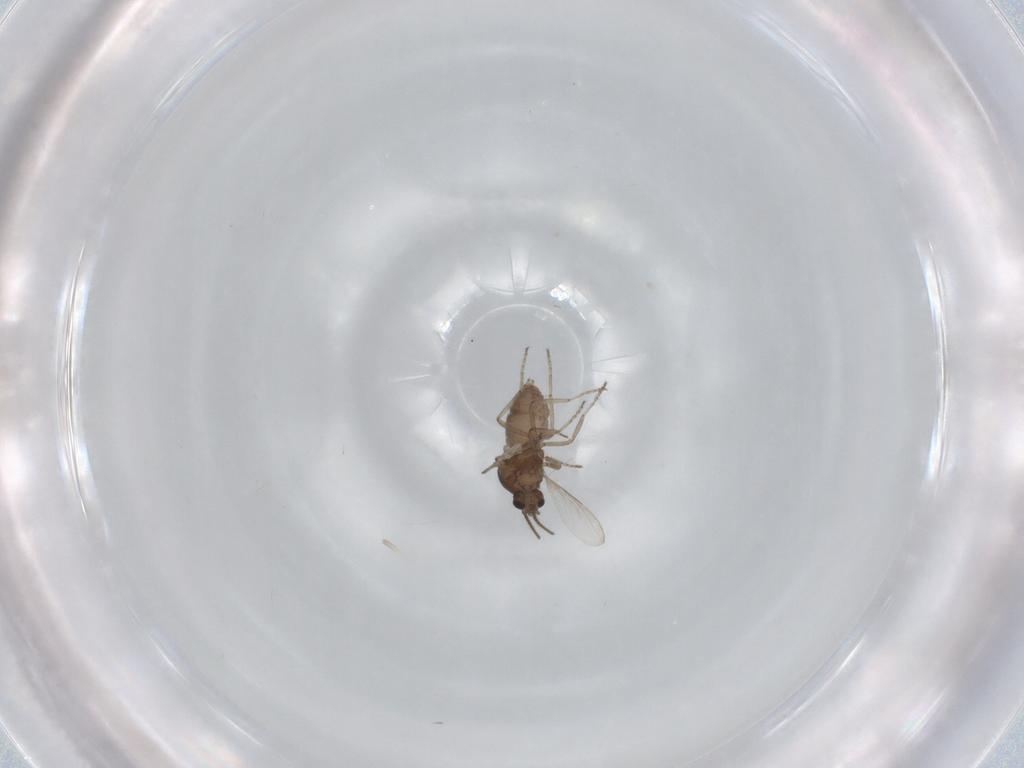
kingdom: Animalia
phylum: Arthropoda
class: Insecta
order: Diptera
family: Ceratopogonidae
